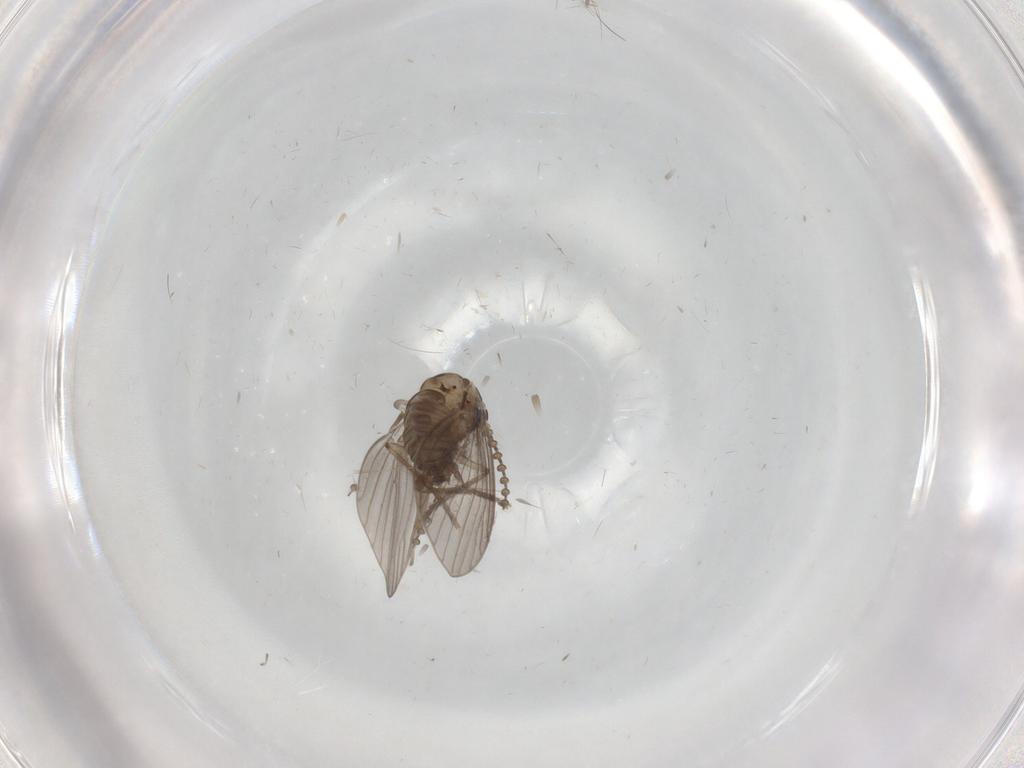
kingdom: Animalia
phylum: Arthropoda
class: Insecta
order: Diptera
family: Psychodidae
